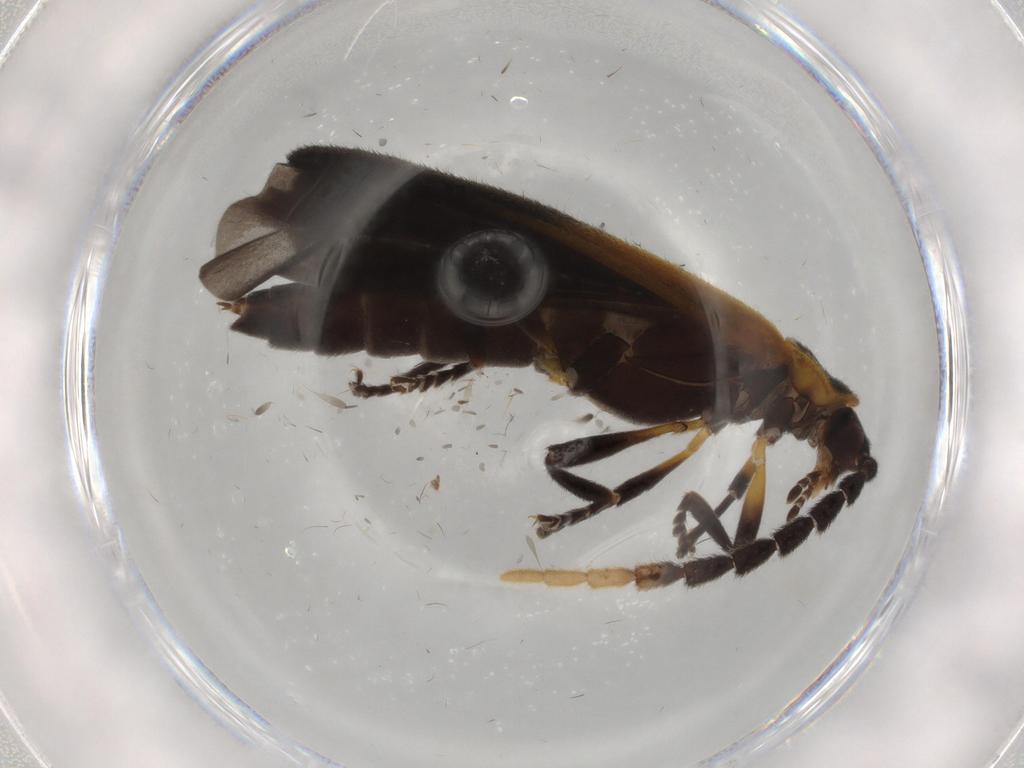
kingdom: Animalia
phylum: Arthropoda
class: Insecta
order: Coleoptera
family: Lycidae
